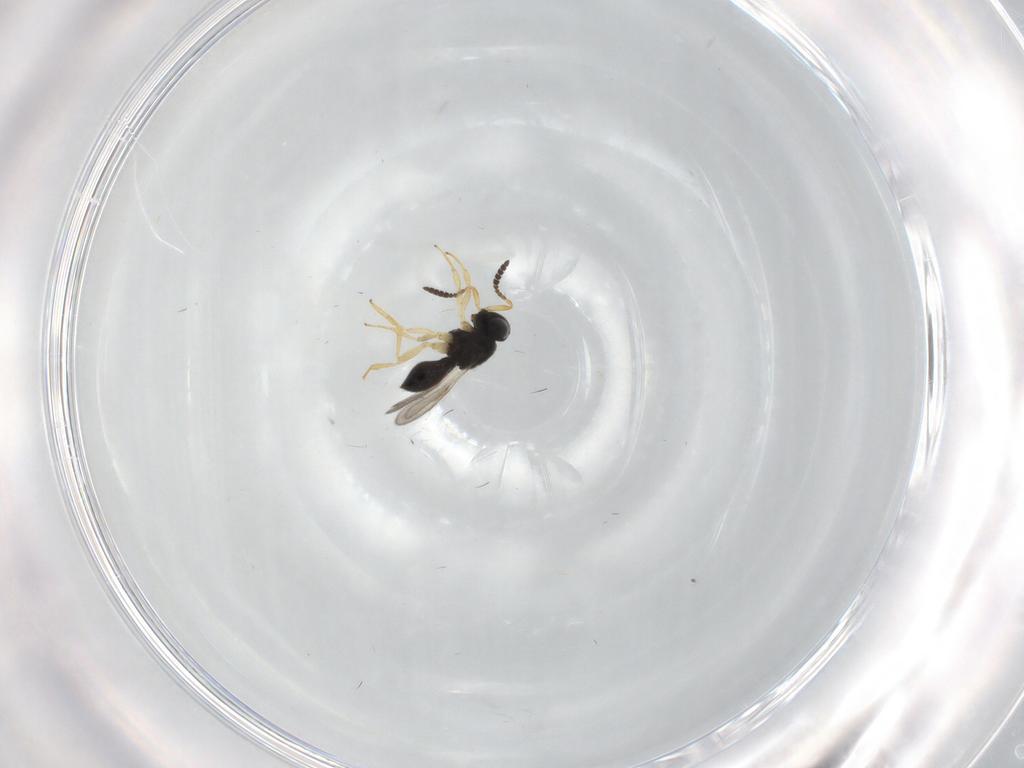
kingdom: Animalia
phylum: Arthropoda
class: Insecta
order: Hymenoptera
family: Scelionidae
